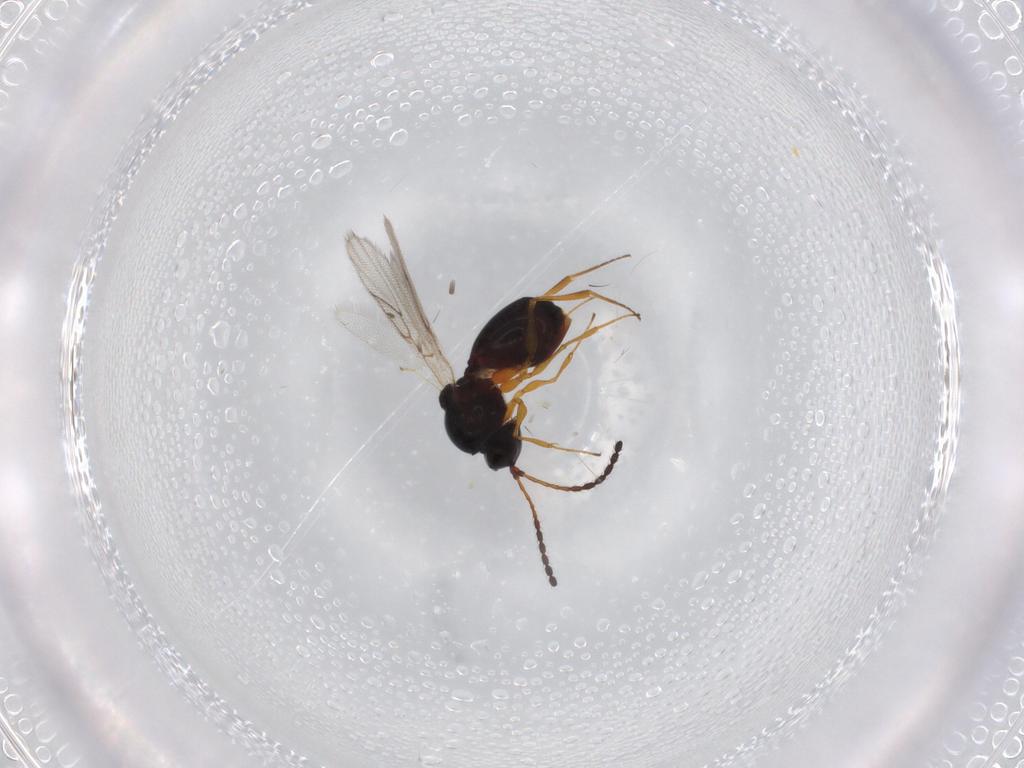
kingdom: Animalia
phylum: Arthropoda
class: Insecta
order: Hymenoptera
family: Figitidae
